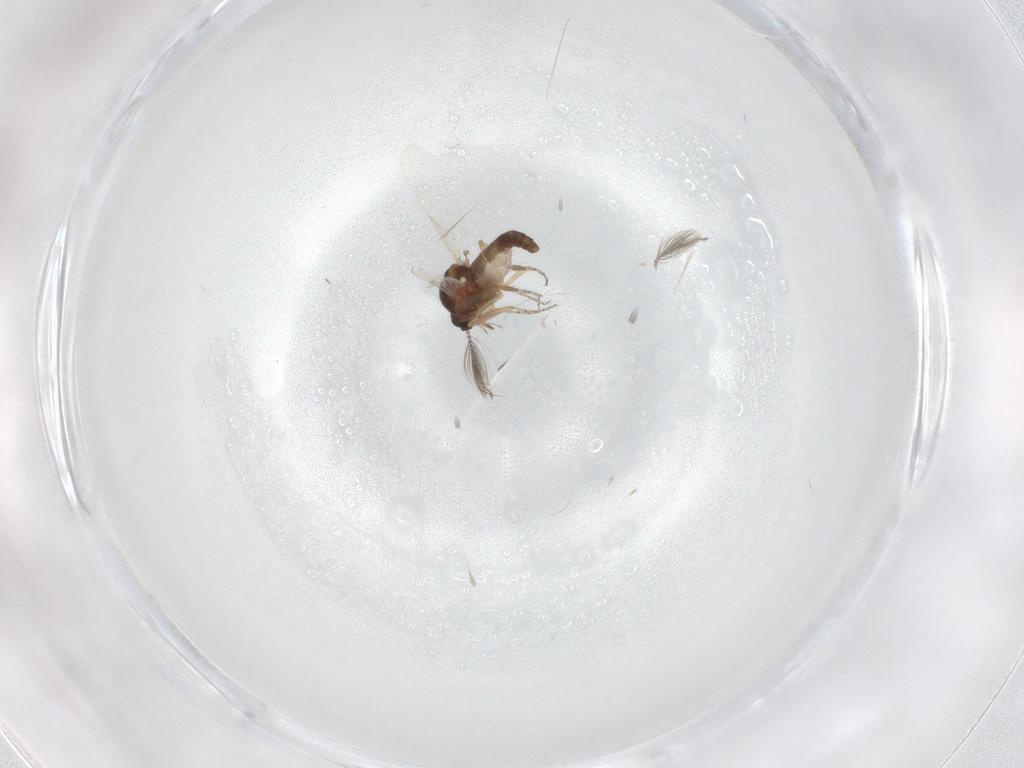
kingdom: Animalia
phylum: Arthropoda
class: Insecta
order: Diptera
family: Ceratopogonidae
